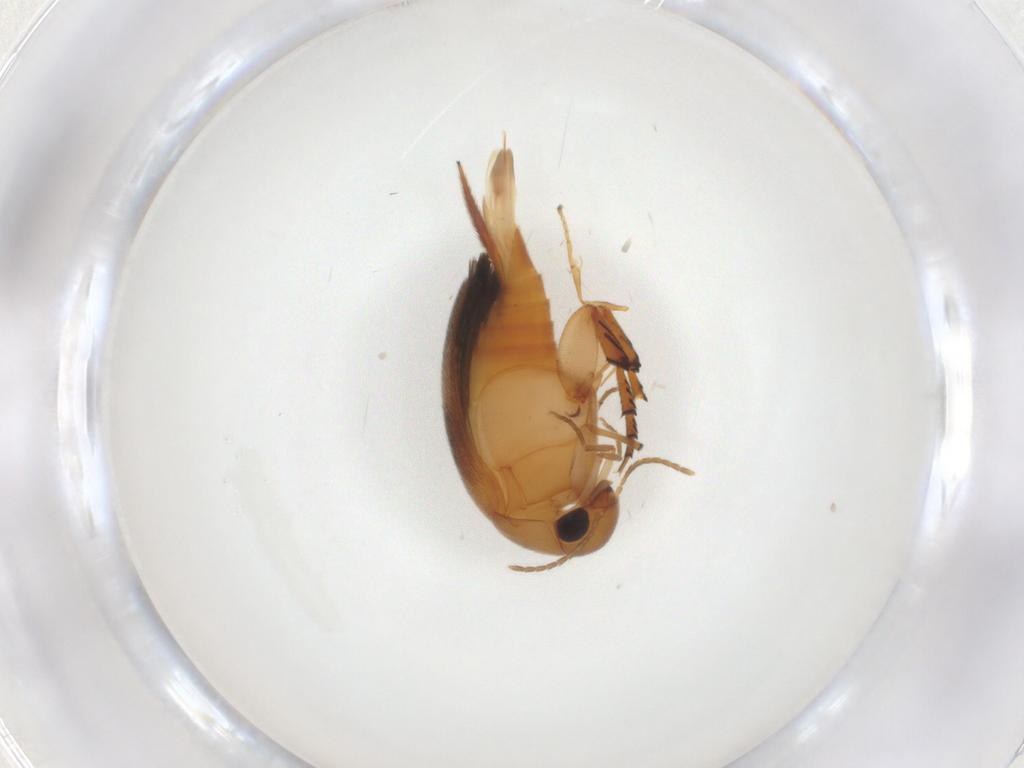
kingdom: Animalia
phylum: Arthropoda
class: Insecta
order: Coleoptera
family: Mordellidae
